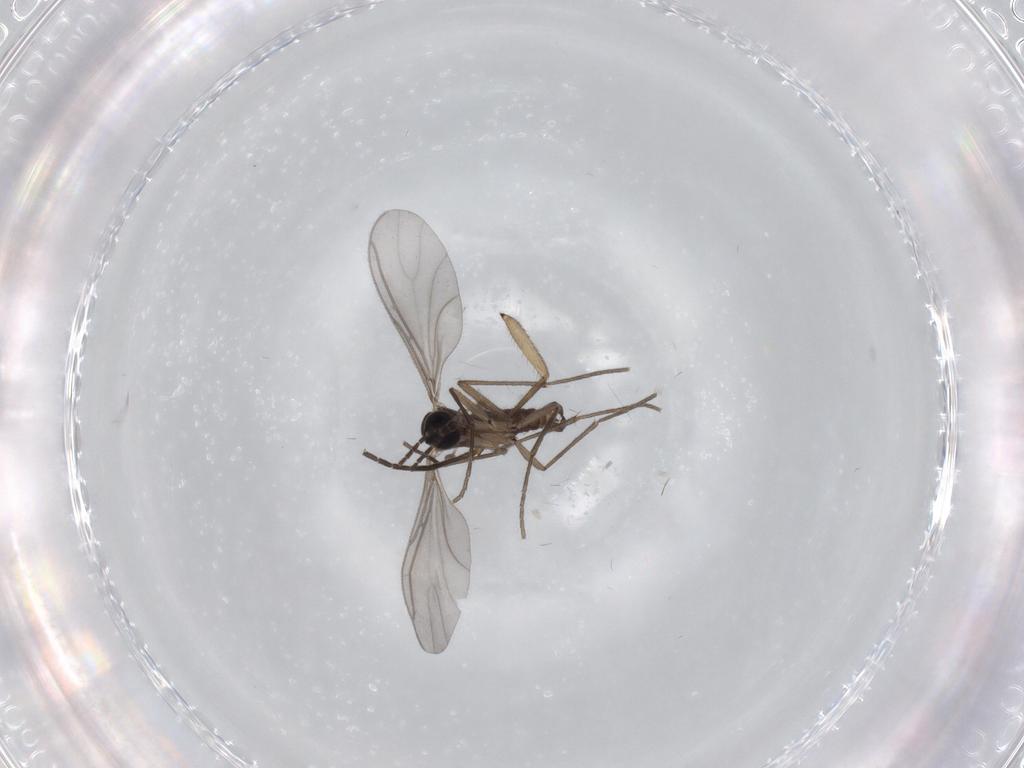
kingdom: Animalia
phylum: Arthropoda
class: Insecta
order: Diptera
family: Sciaridae
